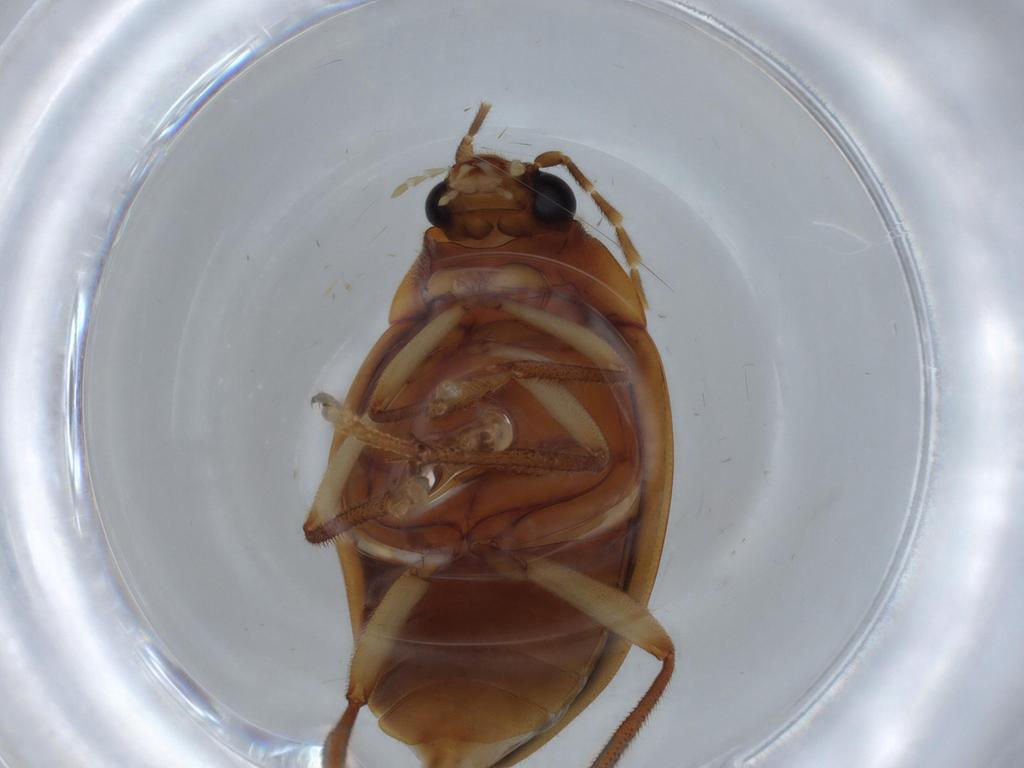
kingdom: Animalia
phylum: Arthropoda
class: Insecta
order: Coleoptera
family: Ptilodactylidae
